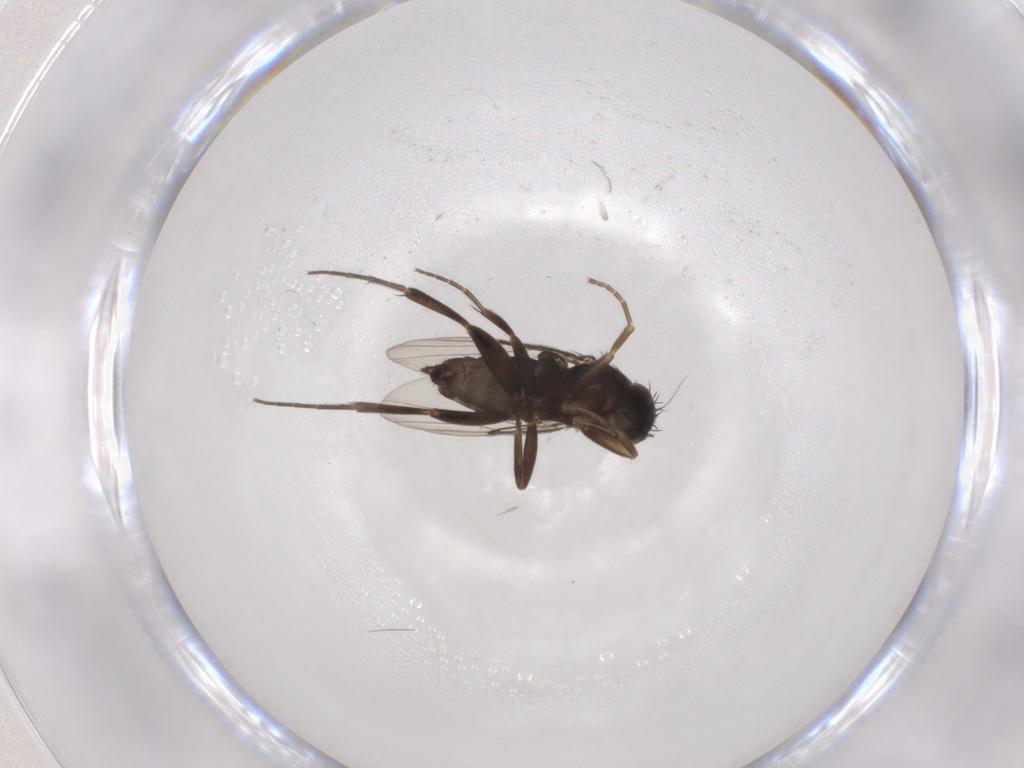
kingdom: Animalia
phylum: Arthropoda
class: Insecta
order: Diptera
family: Phoridae
